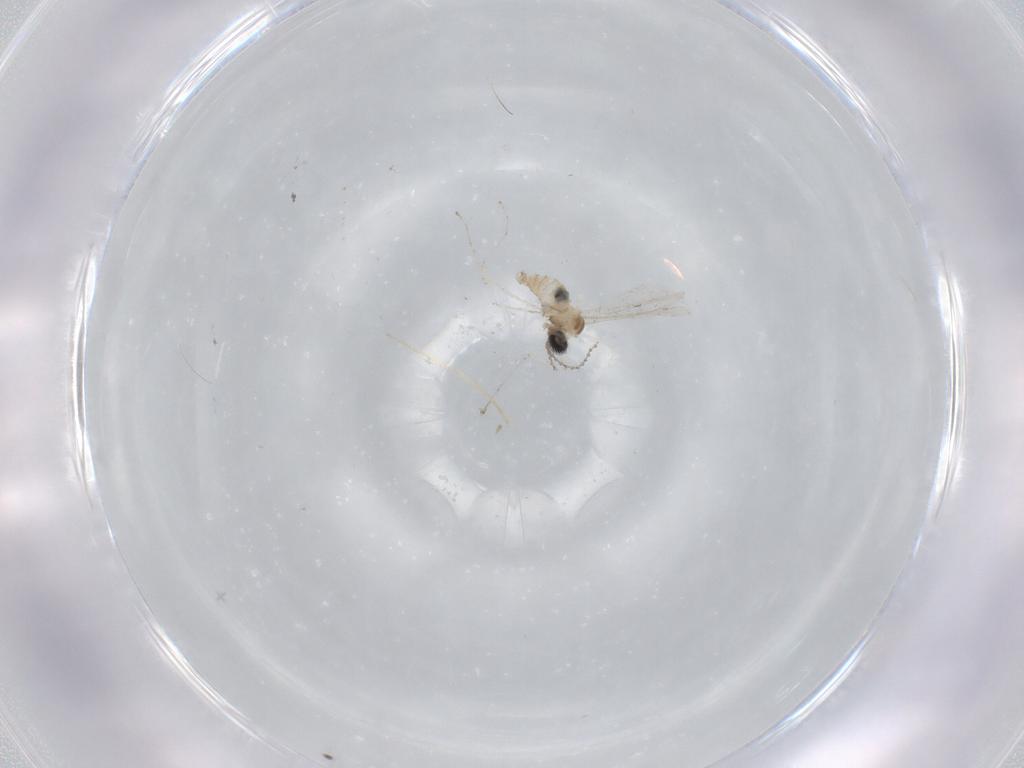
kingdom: Animalia
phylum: Arthropoda
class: Insecta
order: Diptera
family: Cecidomyiidae
